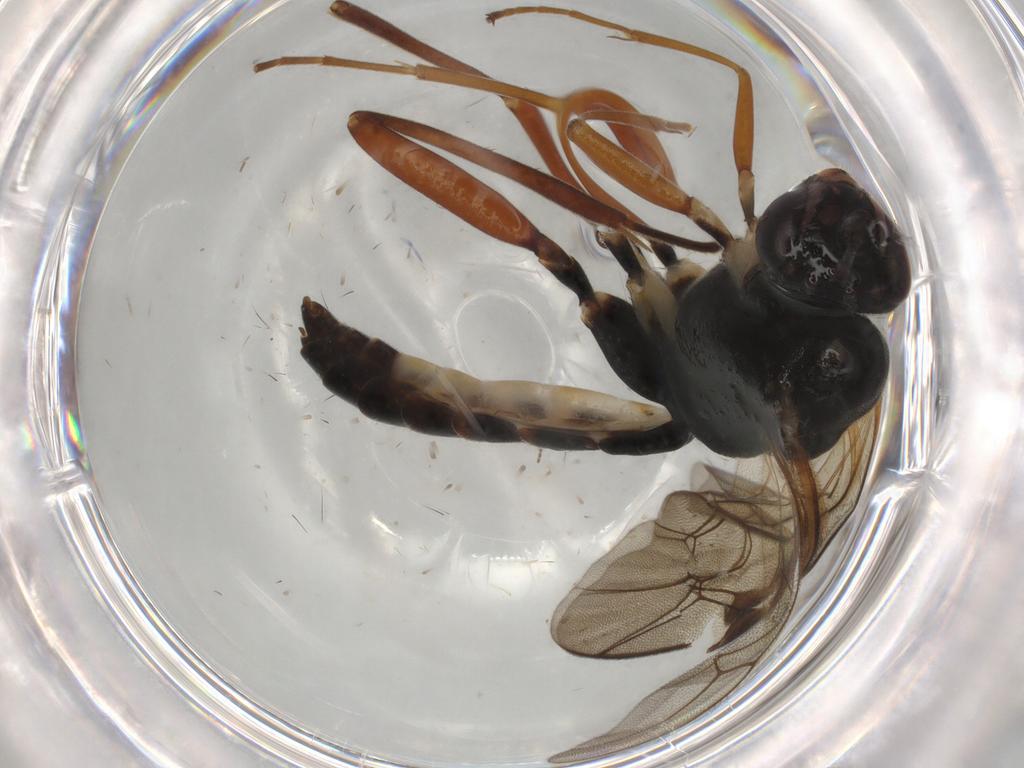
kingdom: Animalia
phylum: Arthropoda
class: Insecta
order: Hymenoptera
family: Ichneumonidae
